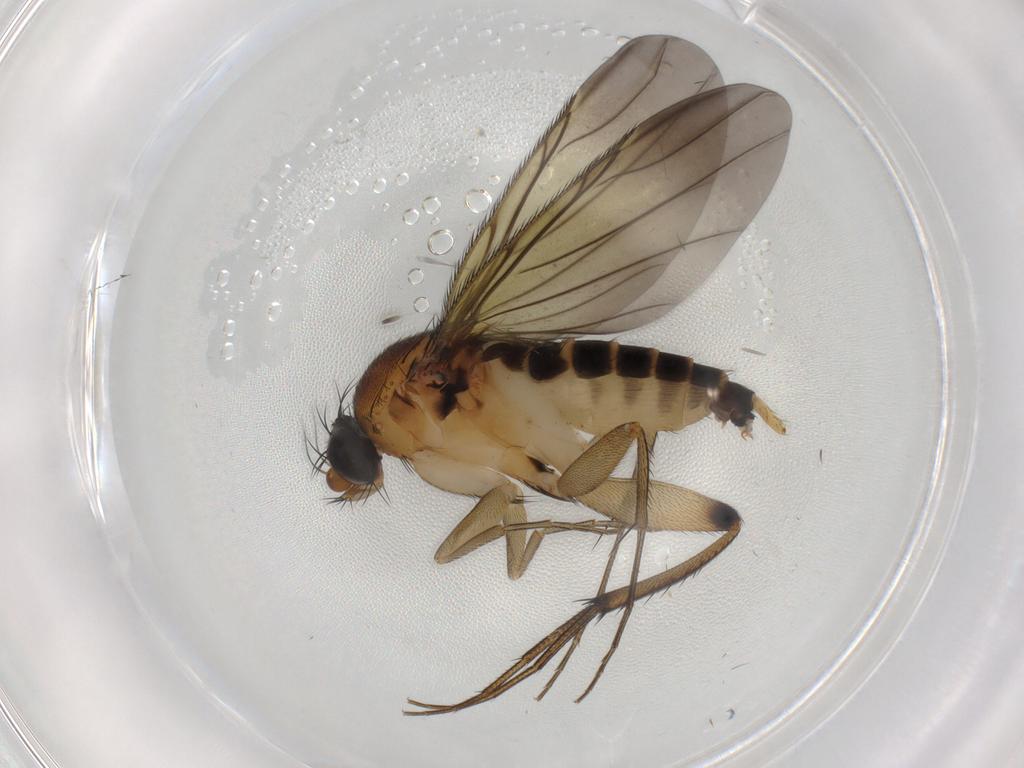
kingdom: Animalia
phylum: Arthropoda
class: Insecta
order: Diptera
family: Phoridae
